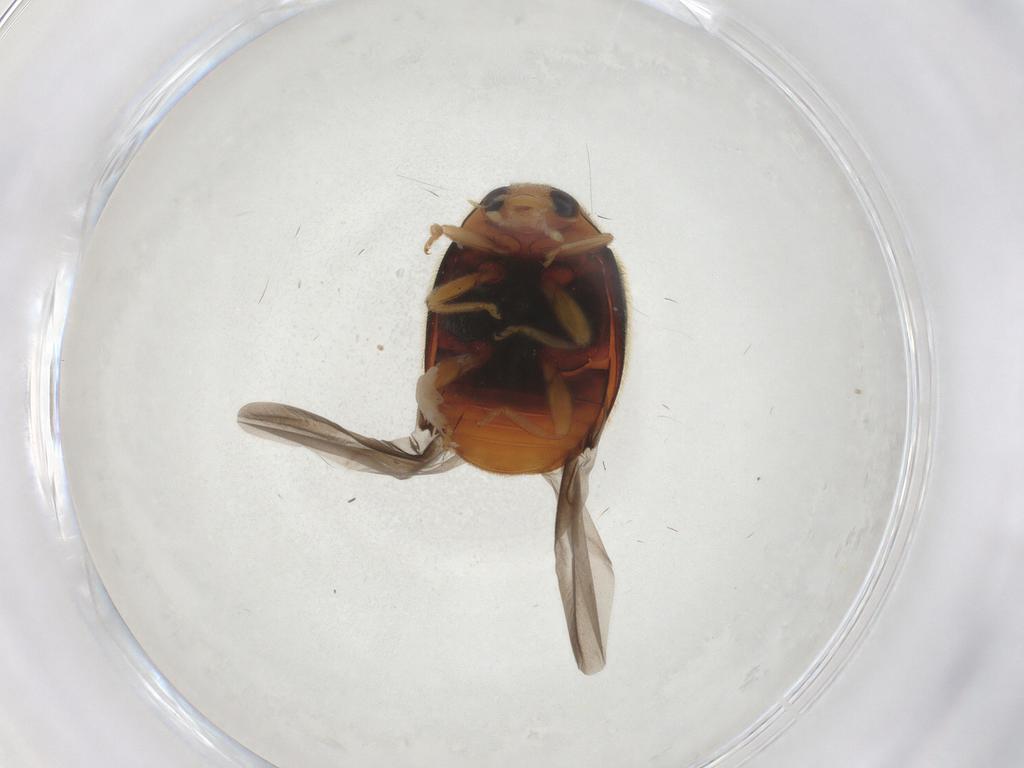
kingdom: Animalia
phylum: Arthropoda
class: Insecta
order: Coleoptera
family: Coccinellidae
